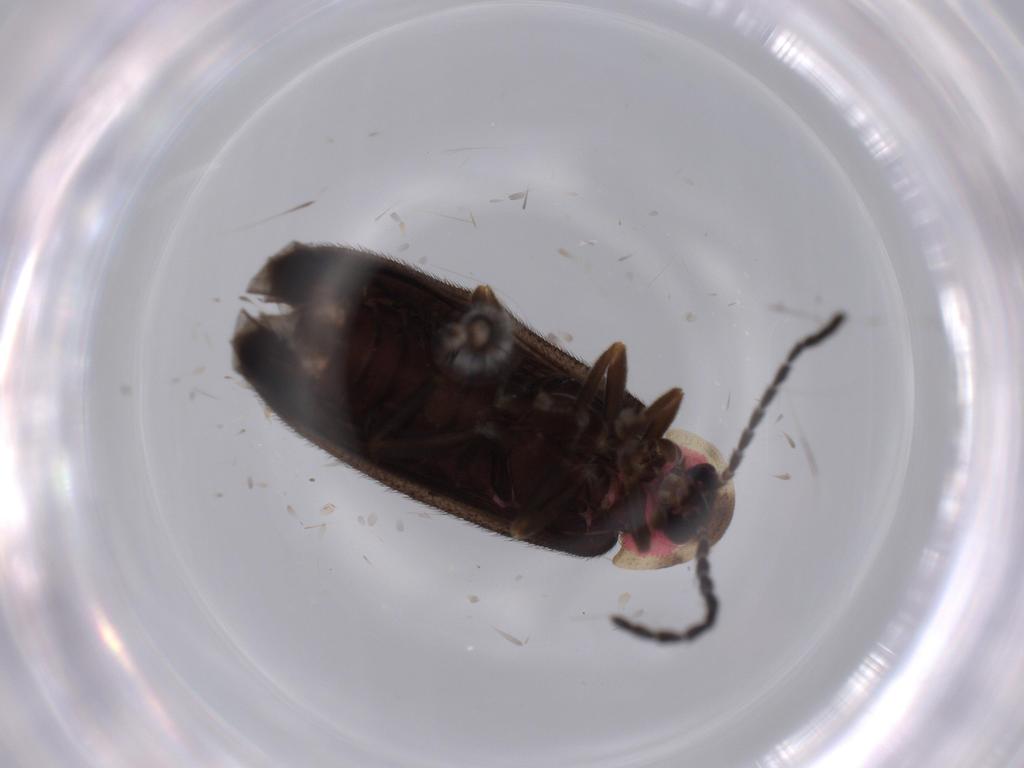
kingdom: Animalia
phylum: Arthropoda
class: Insecta
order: Coleoptera
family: Lampyridae
